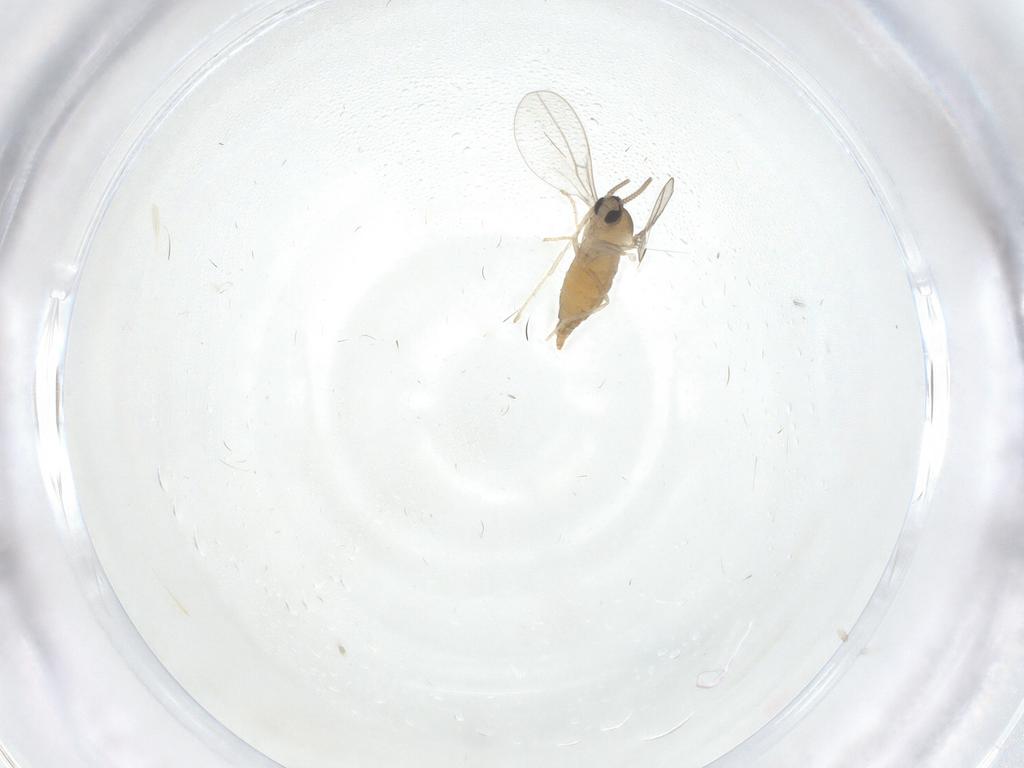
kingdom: Animalia
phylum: Arthropoda
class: Insecta
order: Diptera
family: Cecidomyiidae
